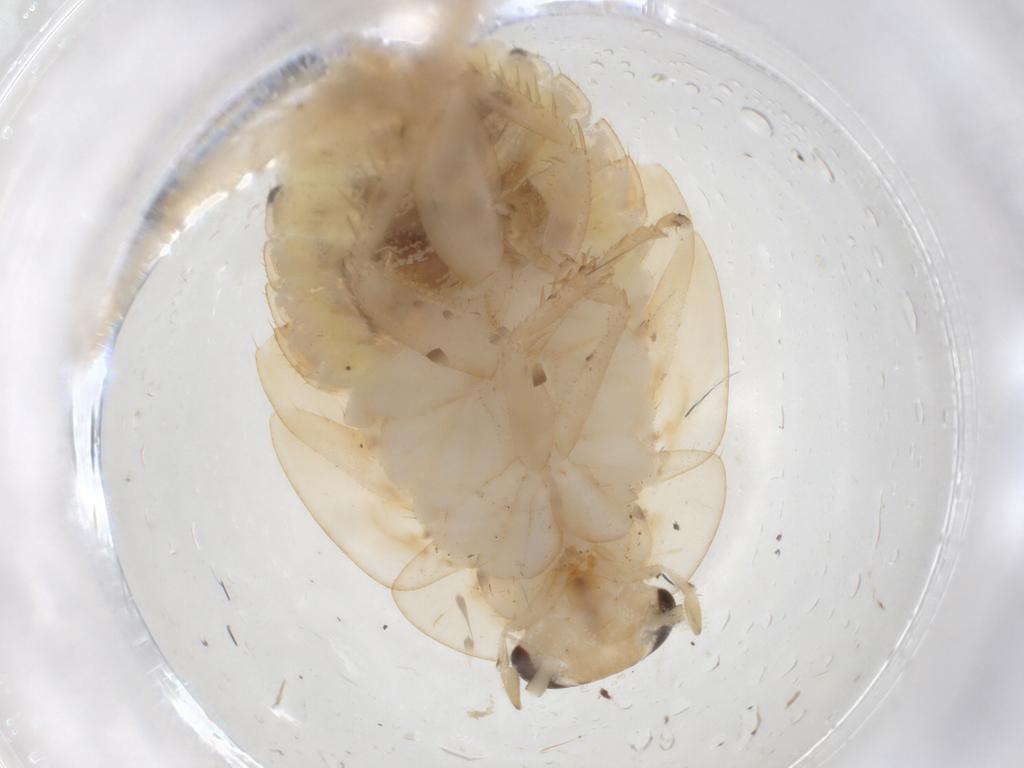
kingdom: Animalia
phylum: Arthropoda
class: Insecta
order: Blattodea
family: Ectobiidae
